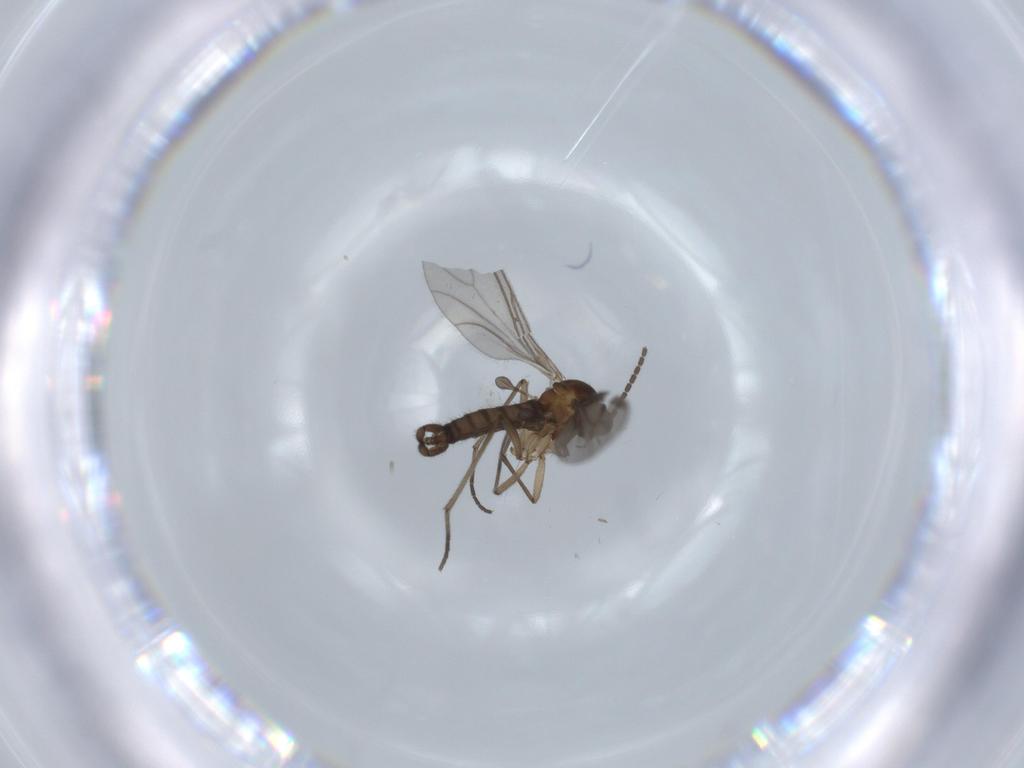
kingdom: Animalia
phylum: Arthropoda
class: Insecta
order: Diptera
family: Sciaridae
